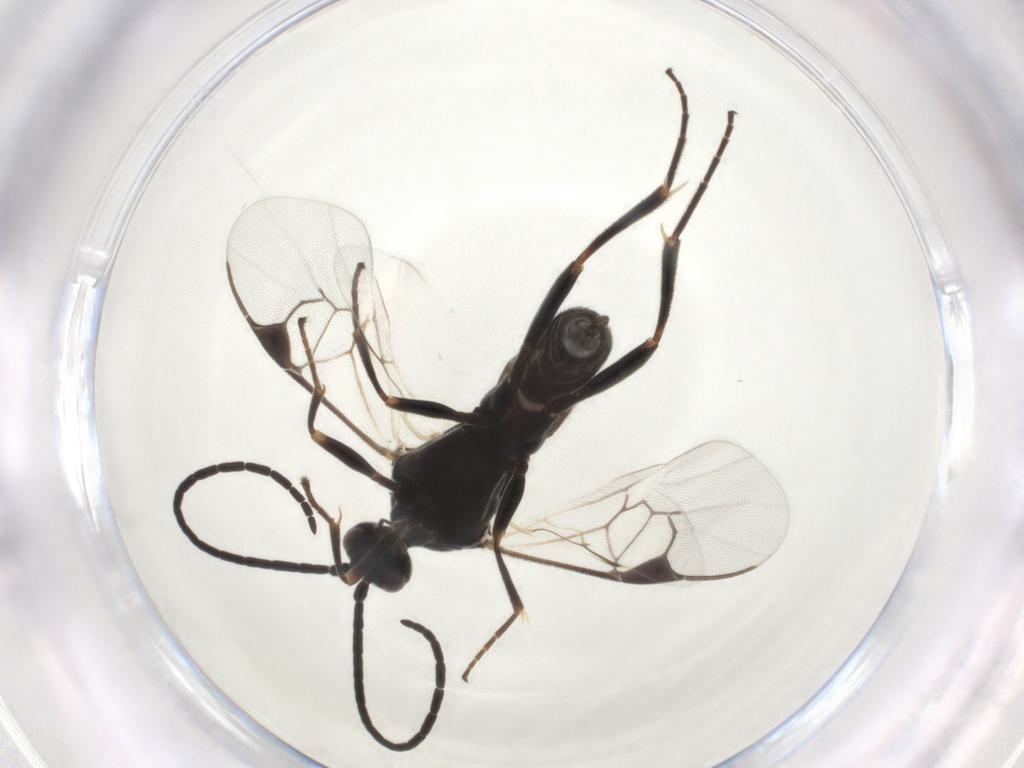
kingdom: Animalia
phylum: Arthropoda
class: Insecta
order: Hymenoptera
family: Braconidae
